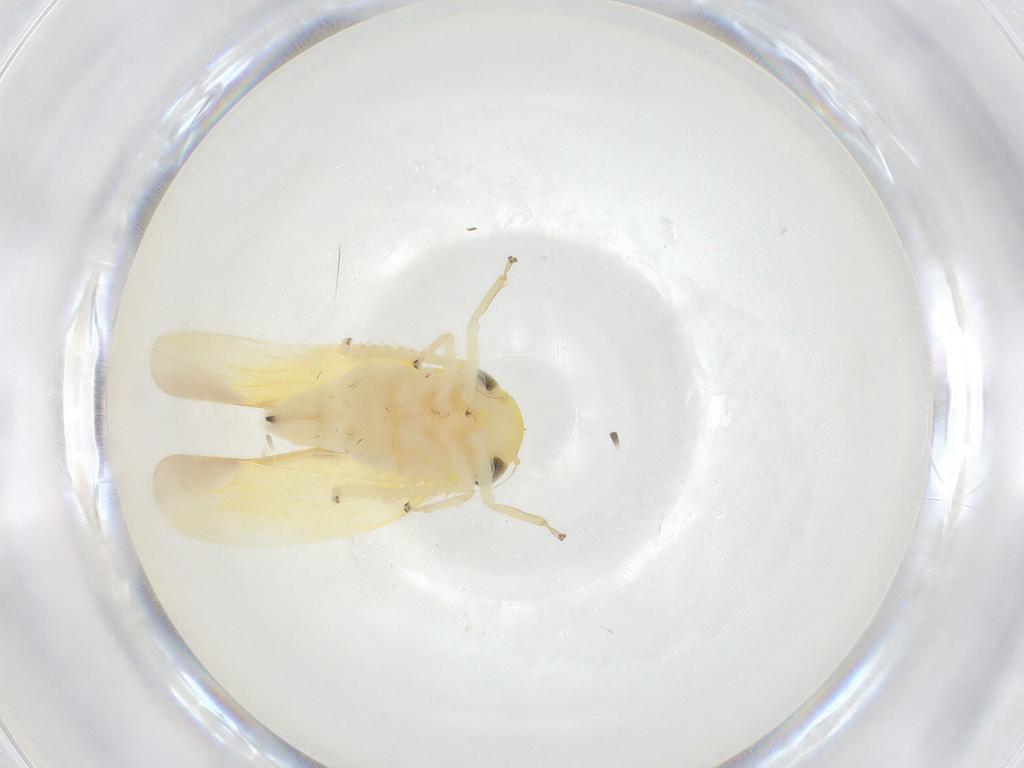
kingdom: Animalia
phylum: Arthropoda
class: Insecta
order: Hemiptera
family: Cicadellidae
